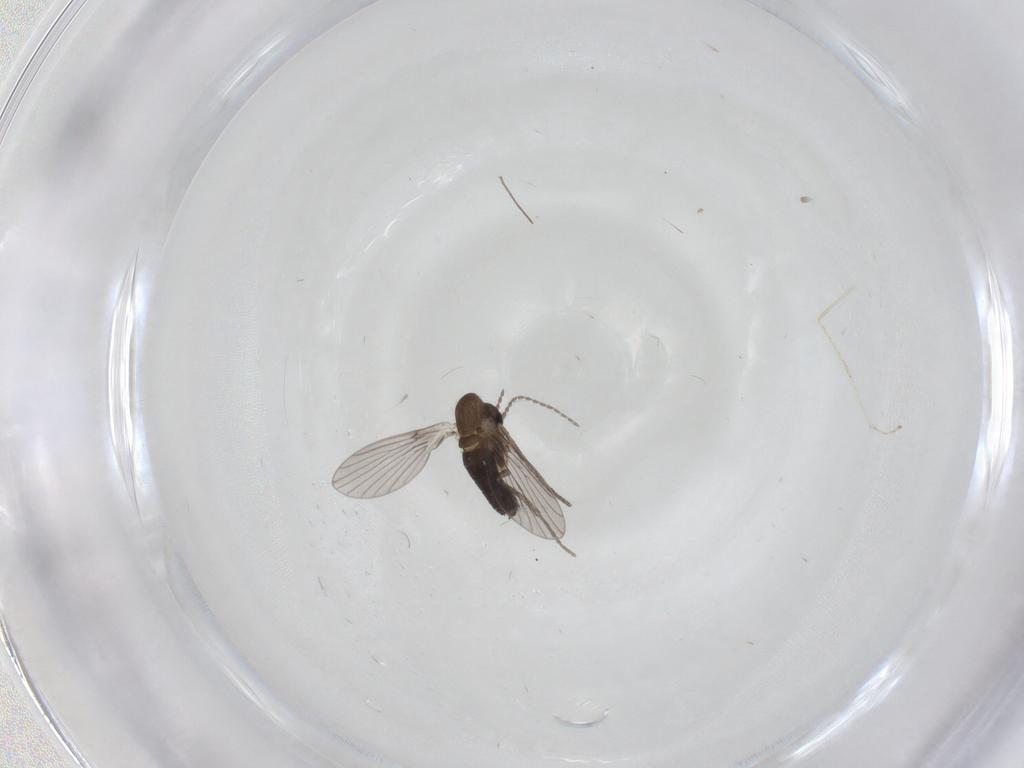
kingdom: Animalia
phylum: Arthropoda
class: Insecta
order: Diptera
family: Cecidomyiidae
